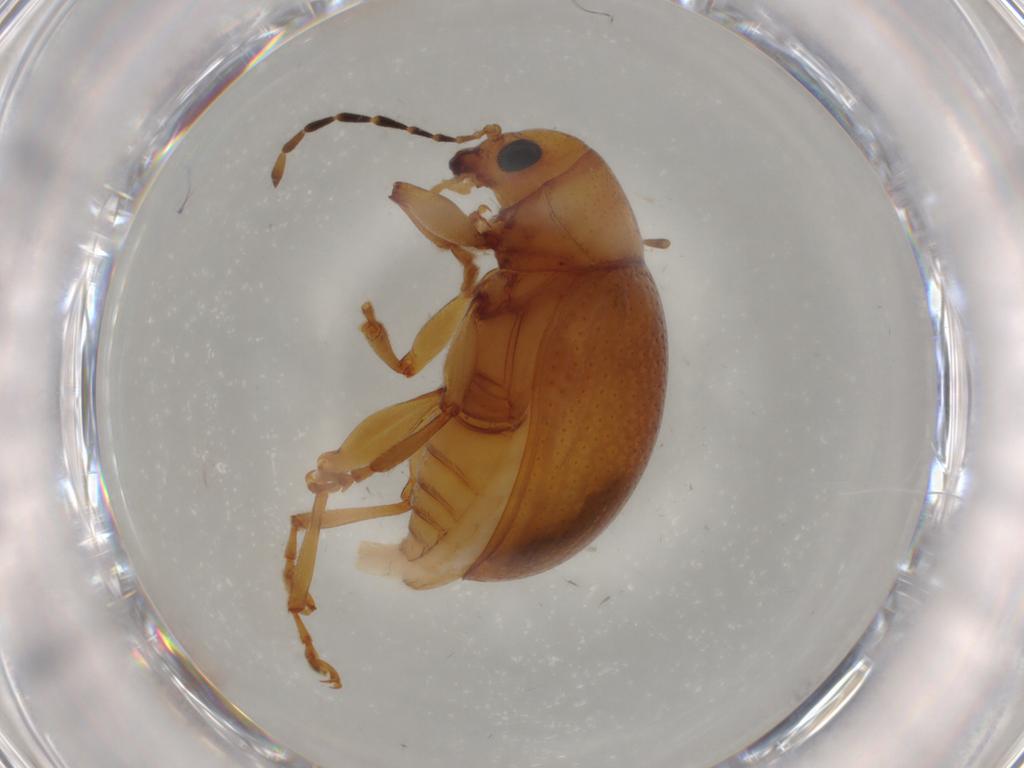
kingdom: Animalia
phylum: Arthropoda
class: Insecta
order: Coleoptera
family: Chrysomelidae
